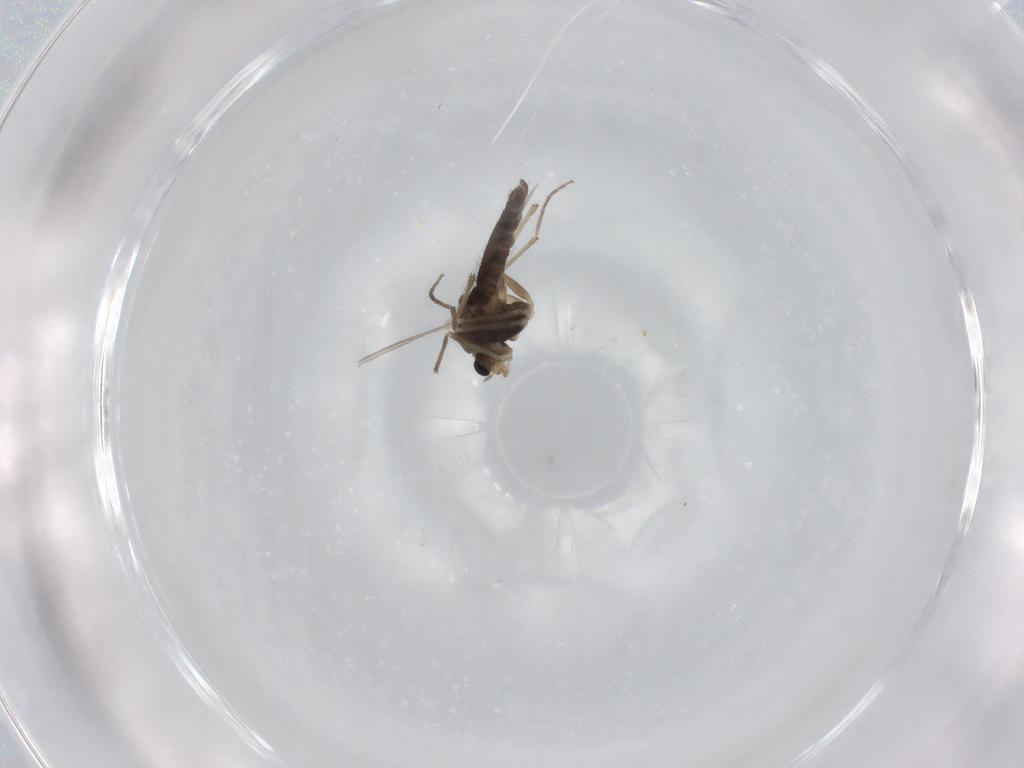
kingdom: Animalia
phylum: Arthropoda
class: Insecta
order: Diptera
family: Chironomidae
